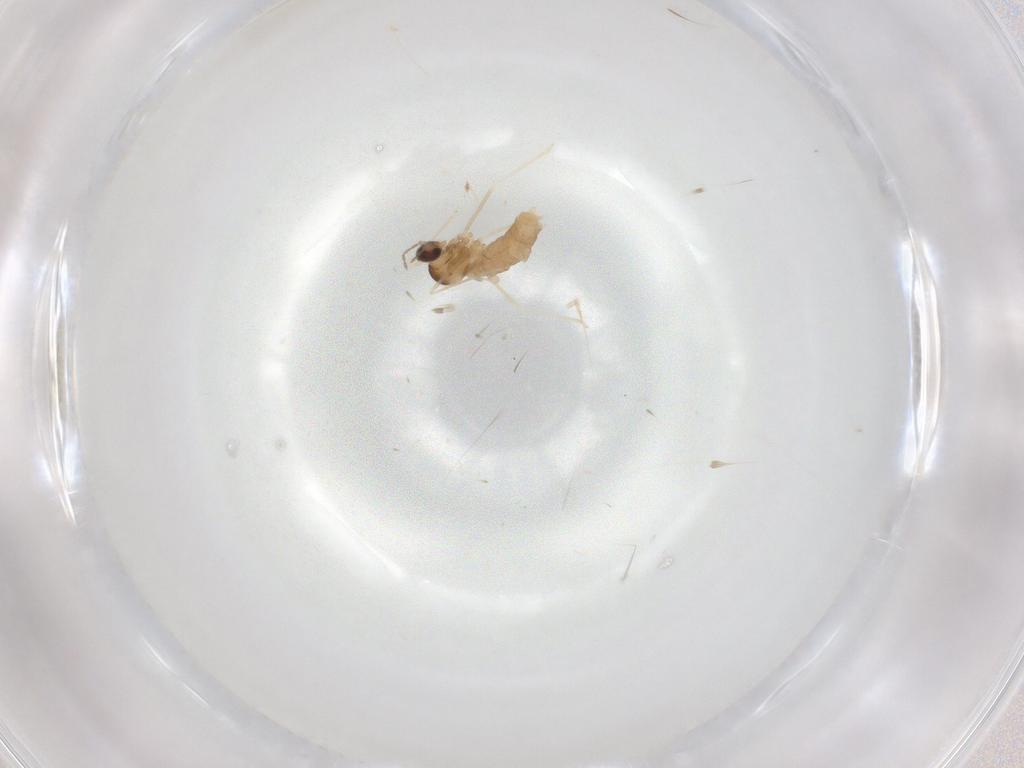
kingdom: Animalia
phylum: Arthropoda
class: Insecta
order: Diptera
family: Cecidomyiidae
